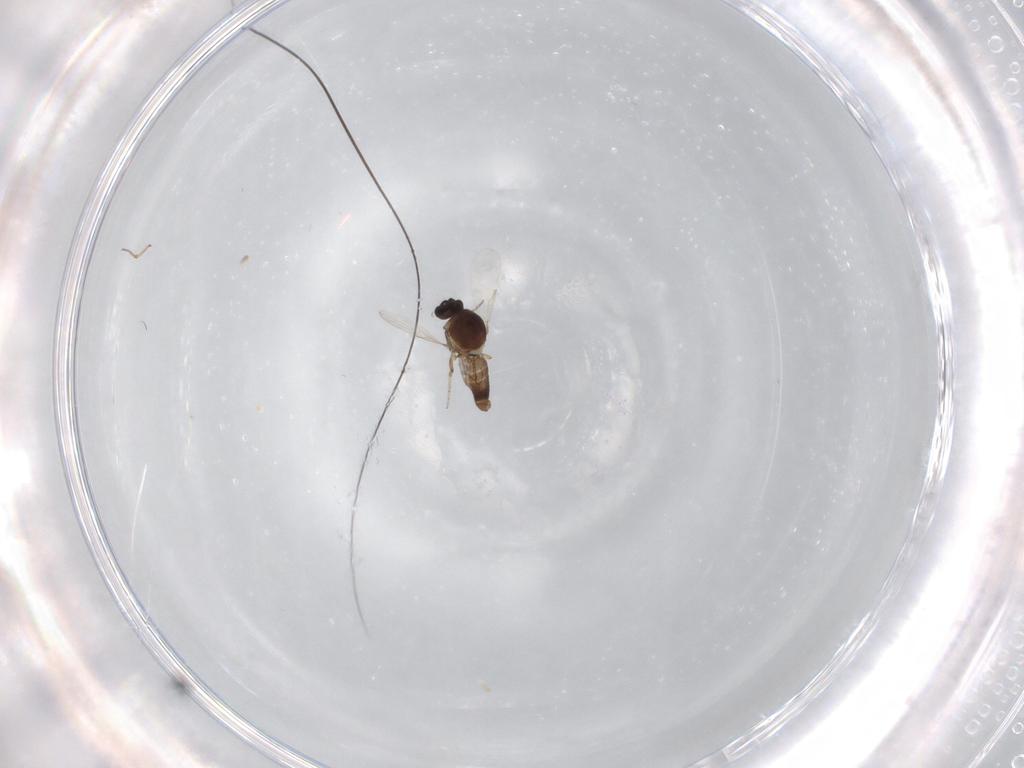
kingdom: Animalia
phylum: Arthropoda
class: Insecta
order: Diptera
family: Ceratopogonidae
